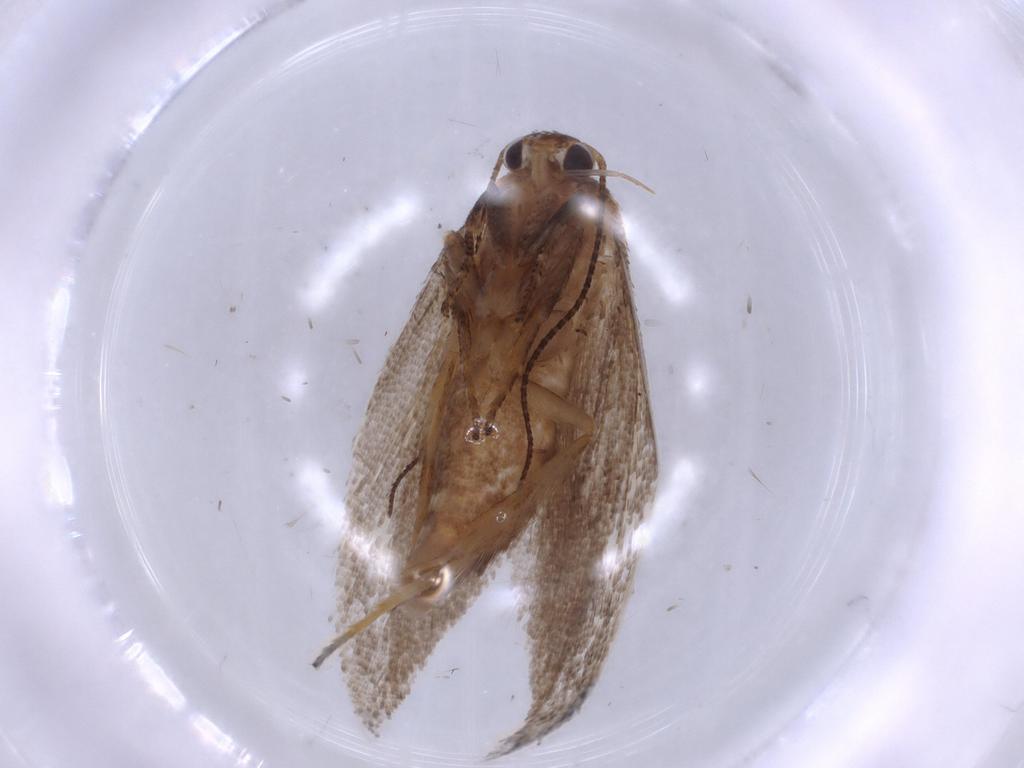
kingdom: Animalia
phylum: Arthropoda
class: Insecta
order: Lepidoptera
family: Oecophoridae
